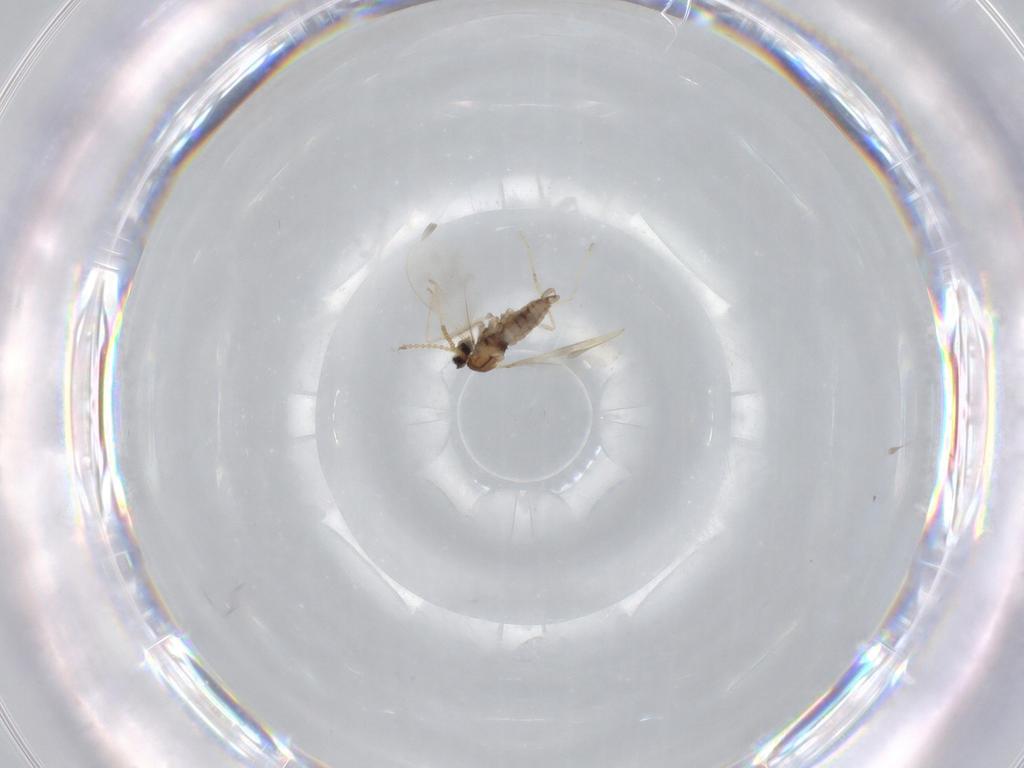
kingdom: Animalia
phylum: Arthropoda
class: Insecta
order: Diptera
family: Cecidomyiidae
